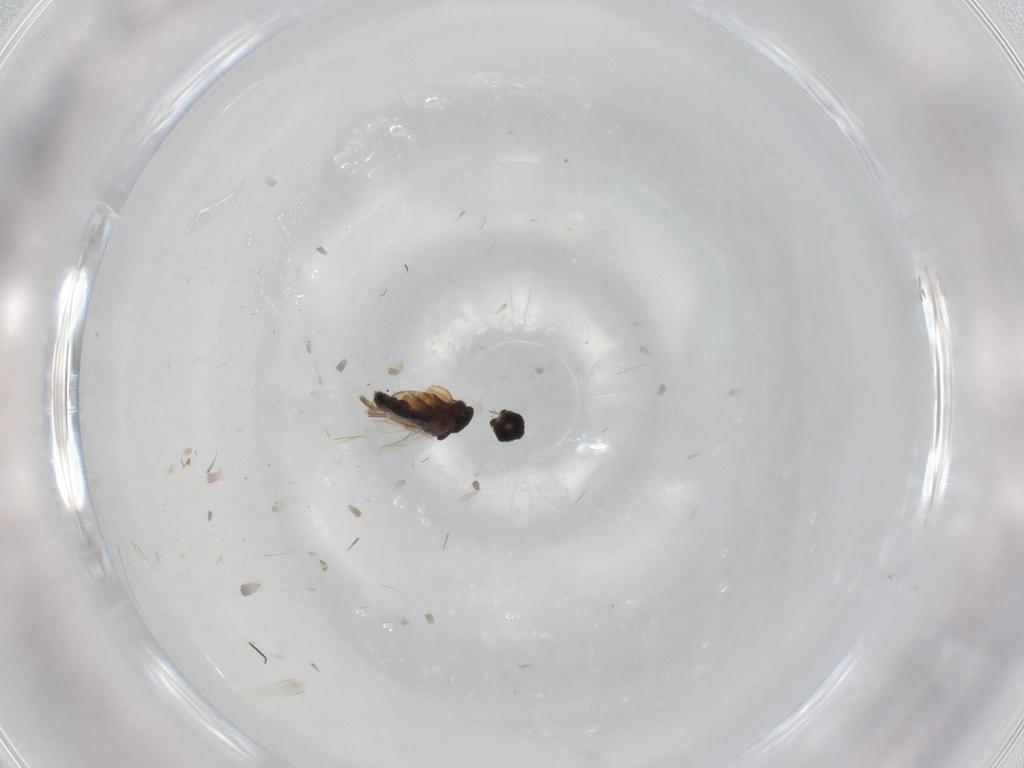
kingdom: Animalia
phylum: Arthropoda
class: Insecta
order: Diptera
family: Phoridae
